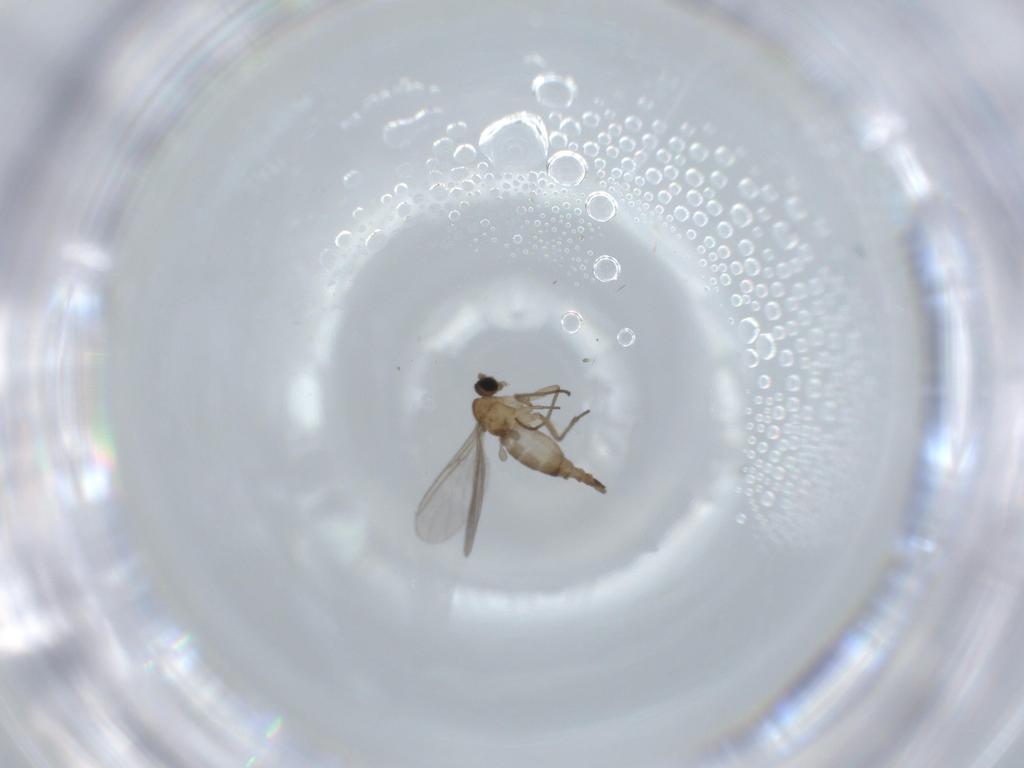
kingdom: Animalia
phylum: Arthropoda
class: Insecta
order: Diptera
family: Sciaridae
